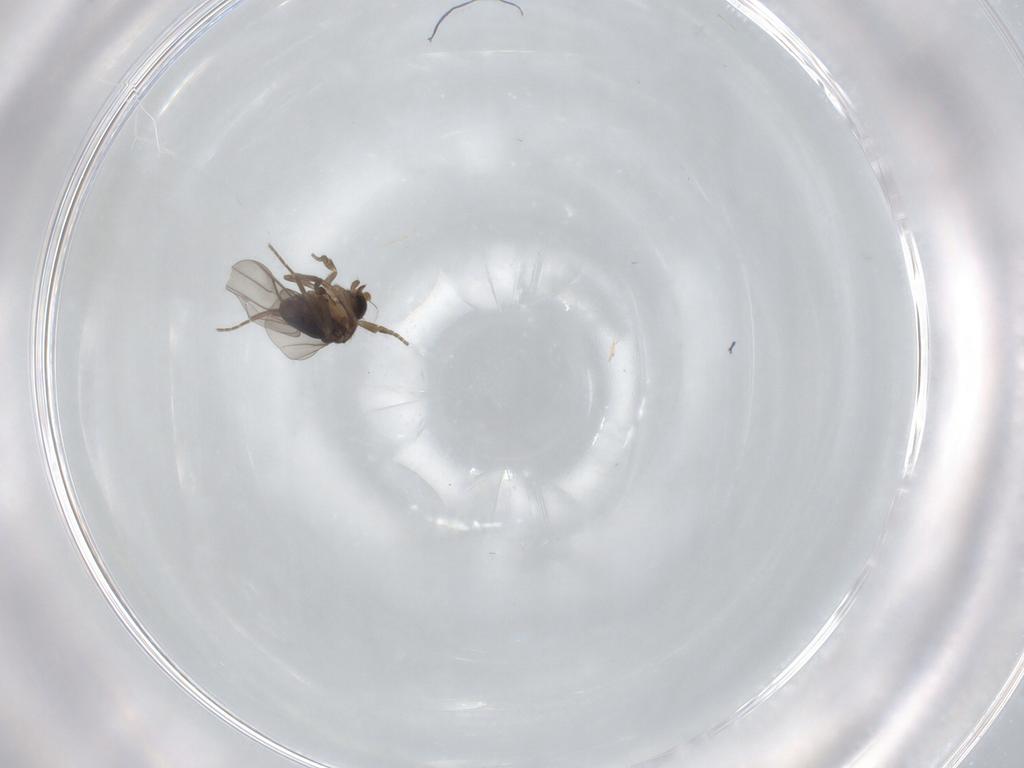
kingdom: Animalia
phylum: Arthropoda
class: Insecta
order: Diptera
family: Phoridae
